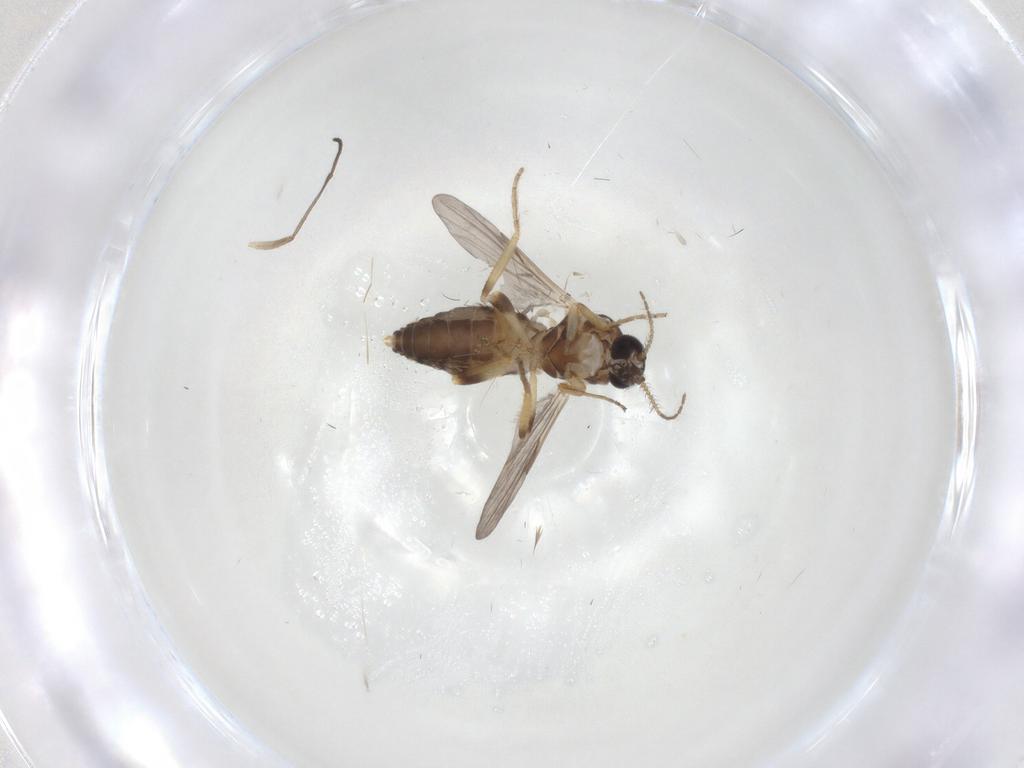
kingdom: Animalia
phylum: Arthropoda
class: Insecta
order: Diptera
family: Ceratopogonidae
